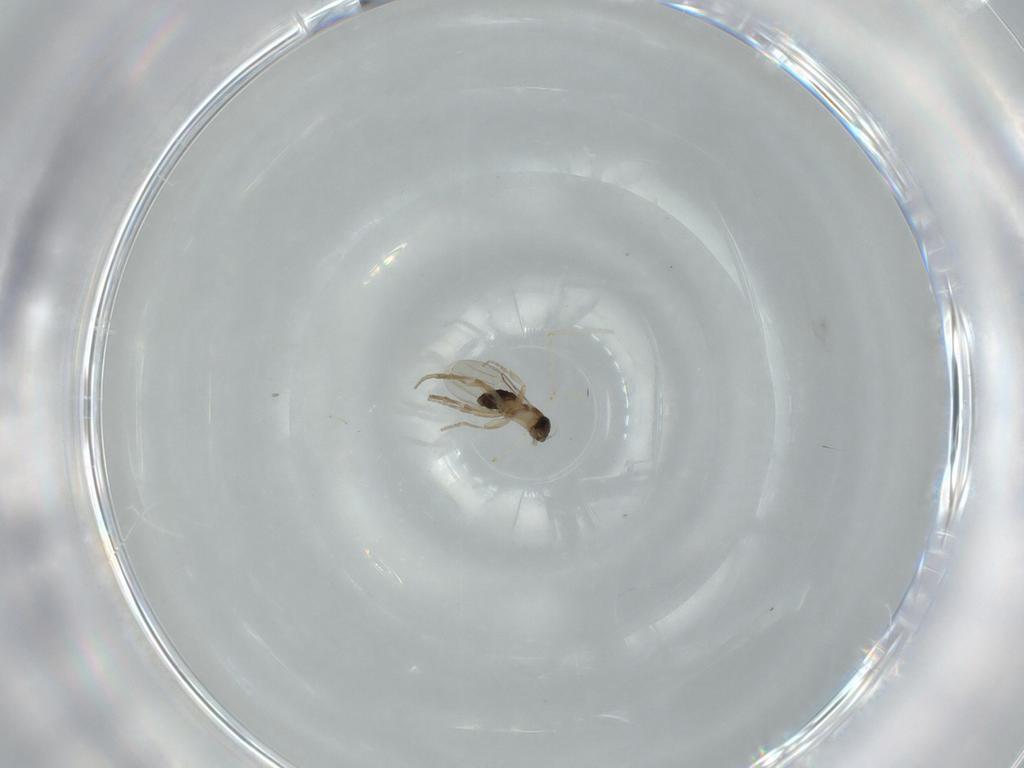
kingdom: Animalia
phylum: Arthropoda
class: Insecta
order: Diptera
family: Phoridae
